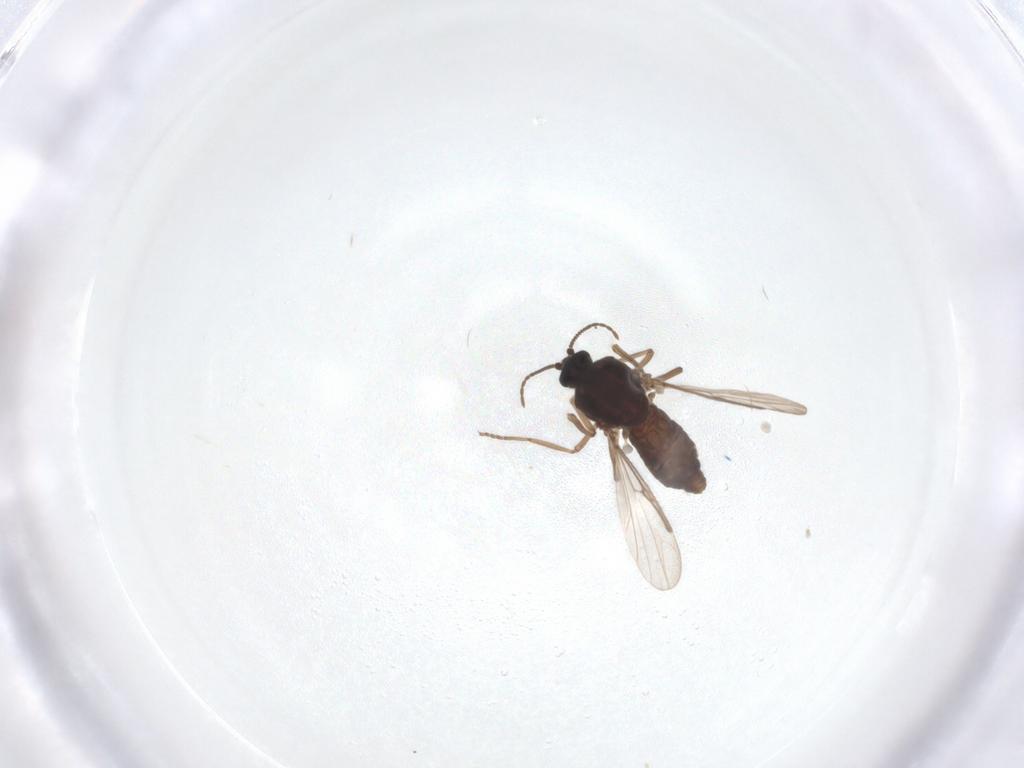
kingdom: Animalia
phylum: Arthropoda
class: Insecta
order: Diptera
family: Ceratopogonidae
